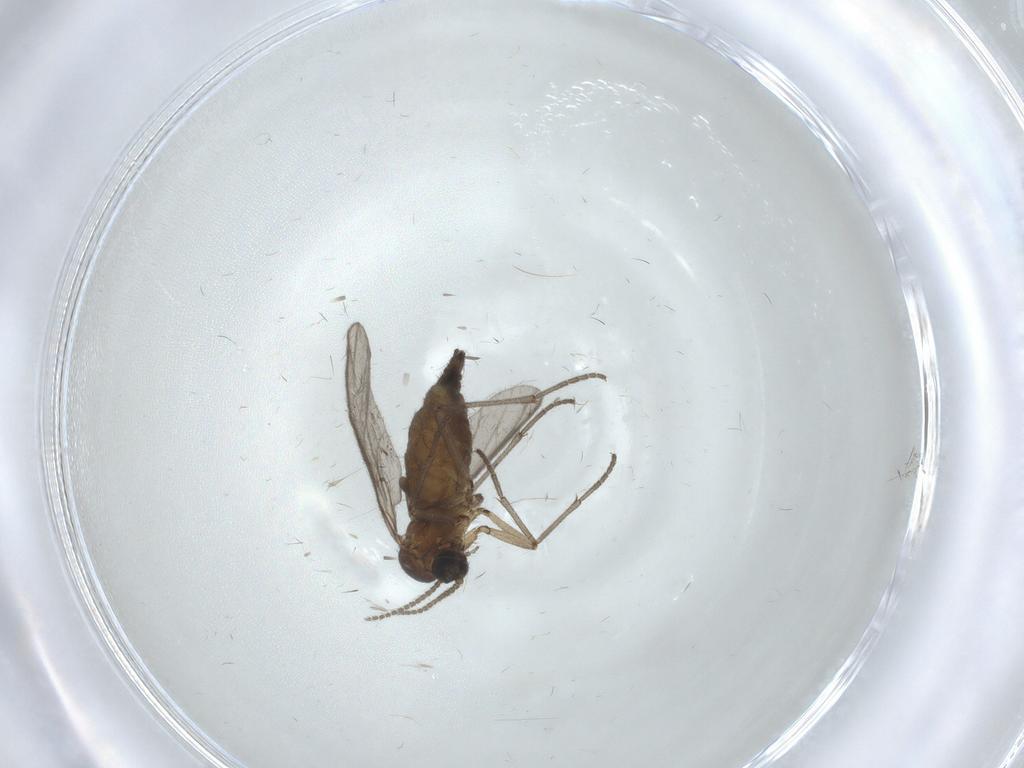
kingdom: Animalia
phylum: Arthropoda
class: Insecta
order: Diptera
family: Sciaridae
